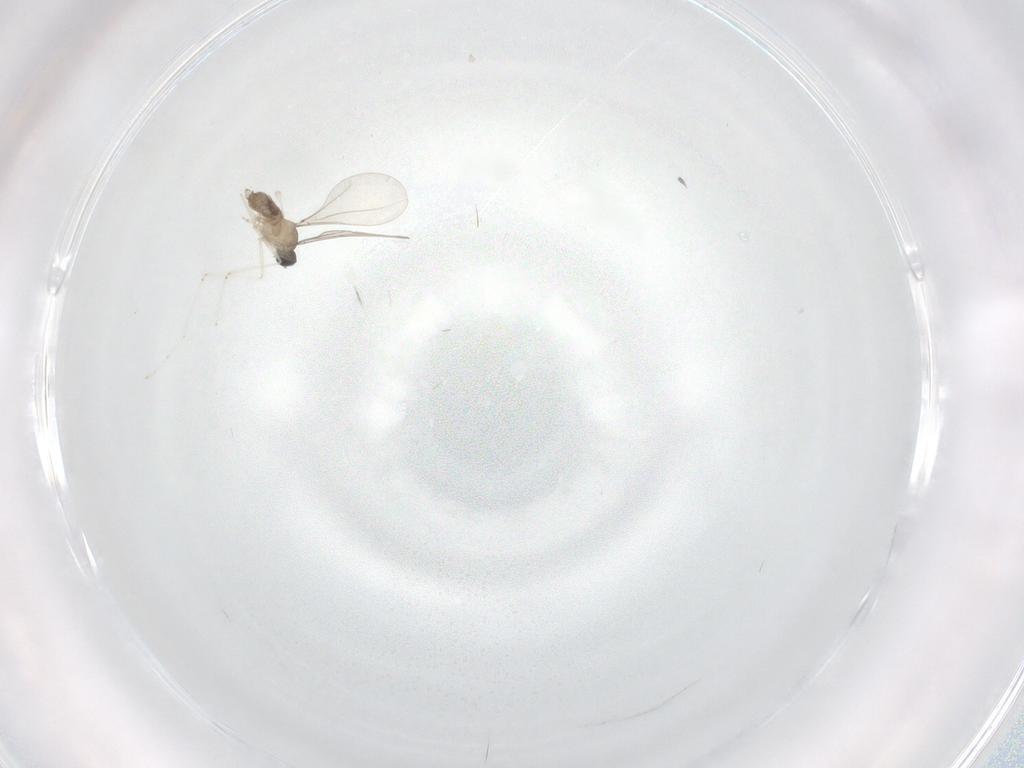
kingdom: Animalia
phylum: Arthropoda
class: Insecta
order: Diptera
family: Cecidomyiidae
